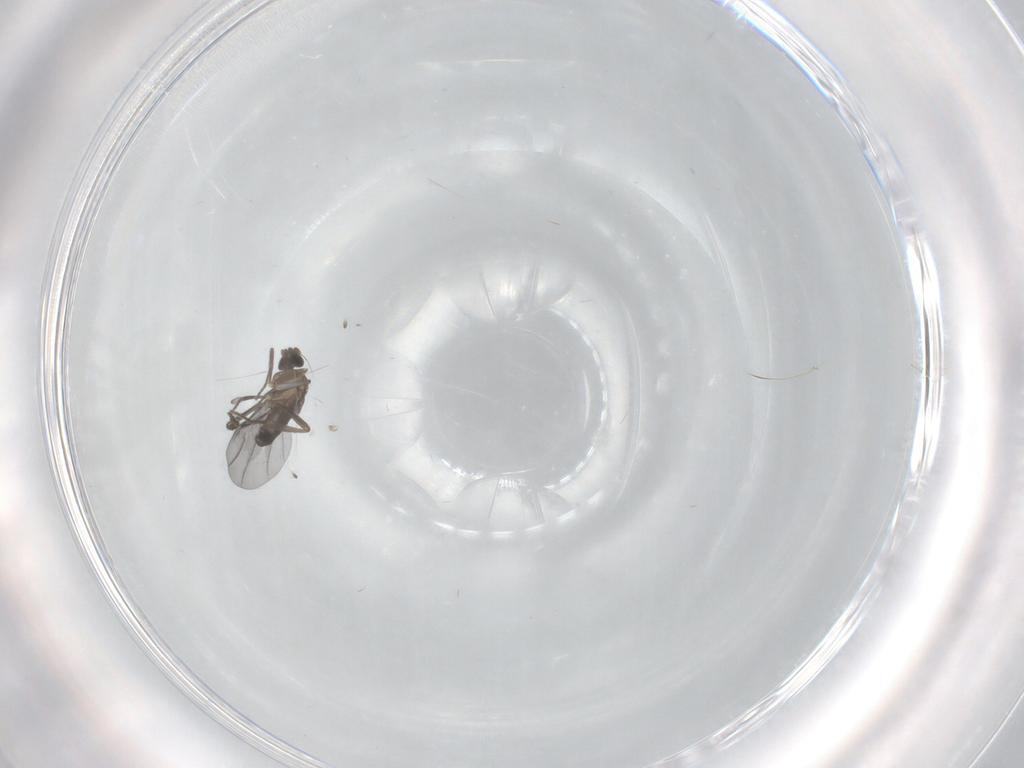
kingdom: Animalia
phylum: Arthropoda
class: Insecta
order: Diptera
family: Phoridae
